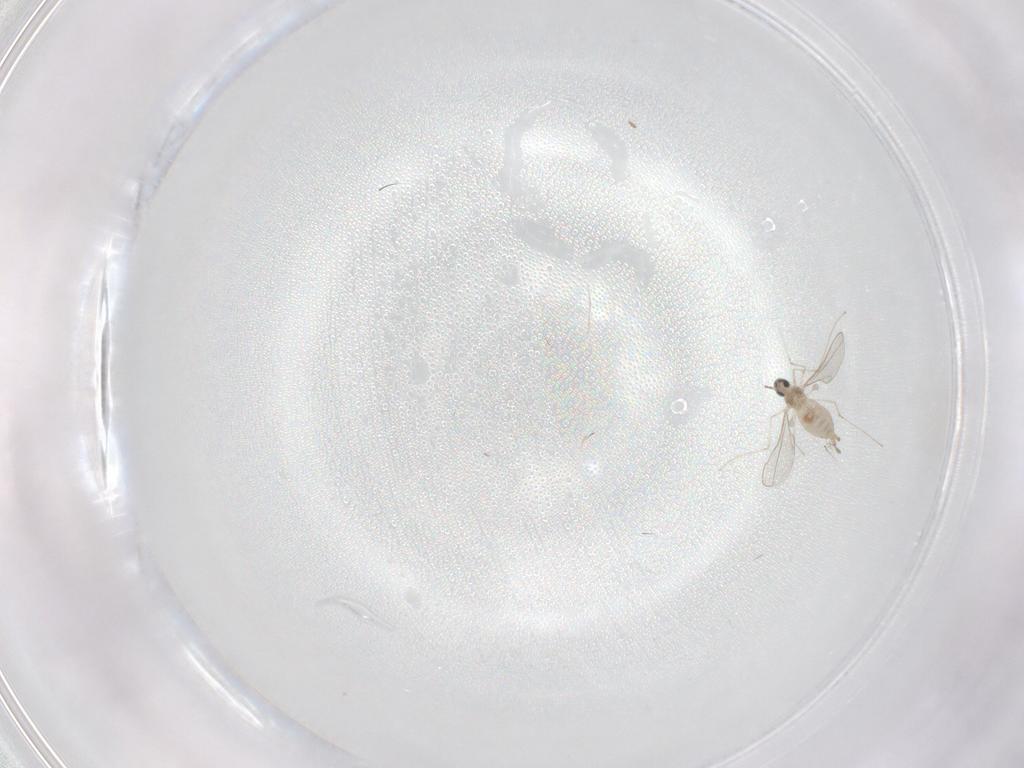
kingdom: Animalia
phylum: Arthropoda
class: Insecta
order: Diptera
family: Cecidomyiidae
